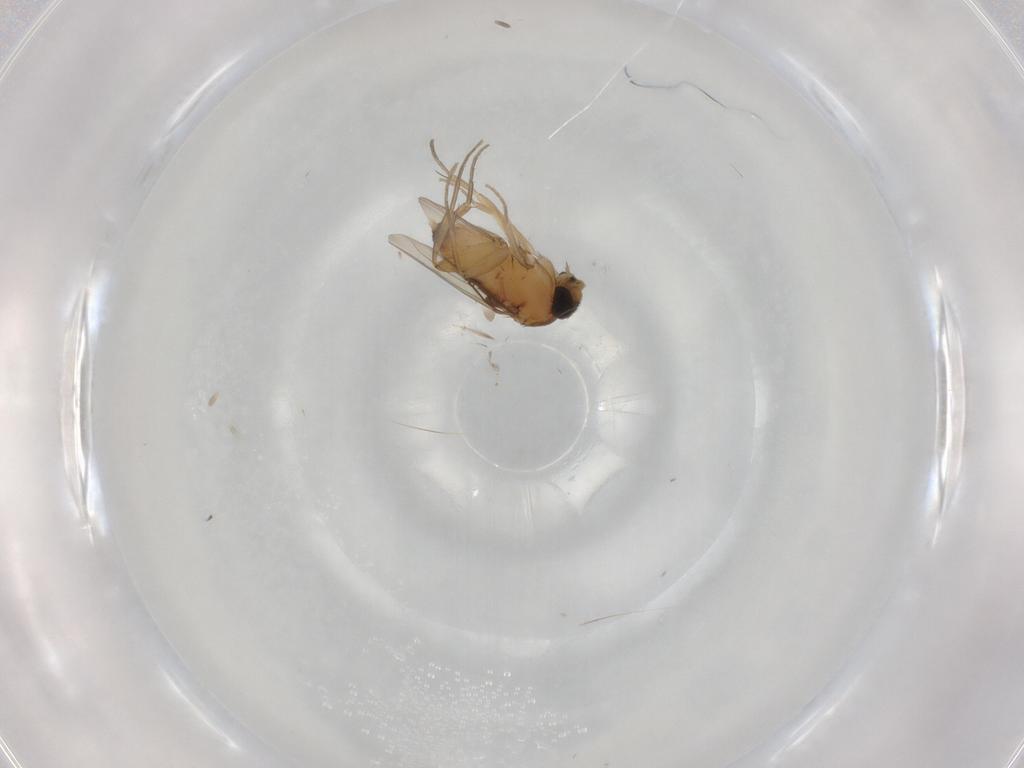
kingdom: Animalia
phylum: Arthropoda
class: Insecta
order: Diptera
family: Phoridae
